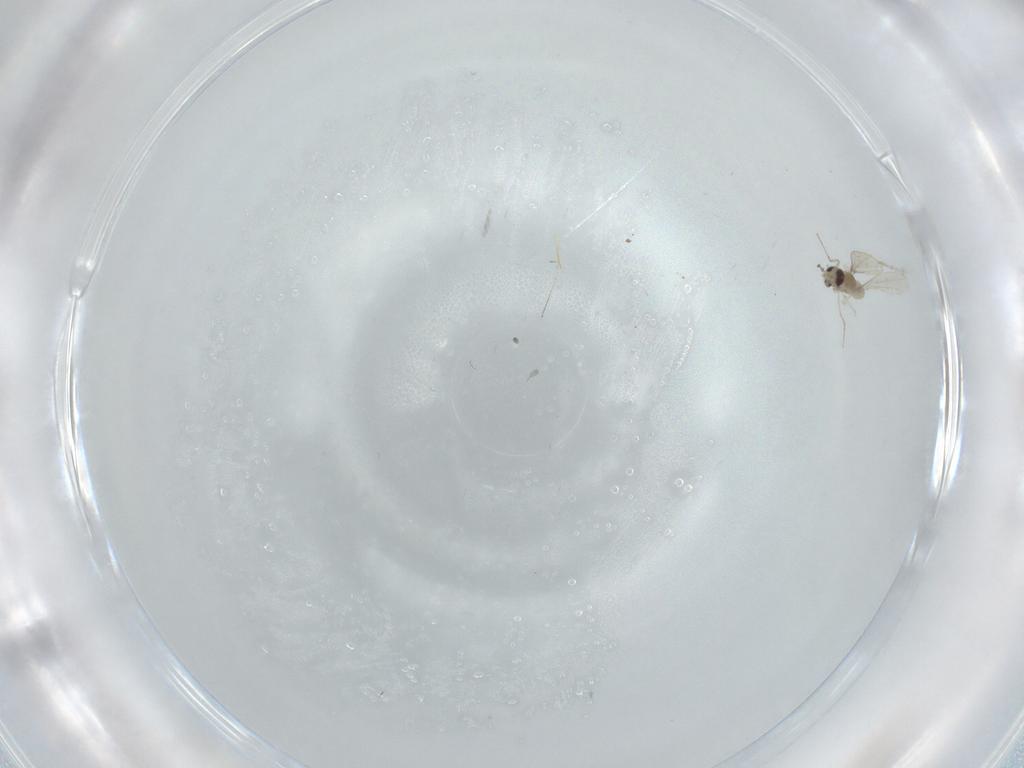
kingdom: Animalia
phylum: Arthropoda
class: Insecta
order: Diptera
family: Cecidomyiidae
